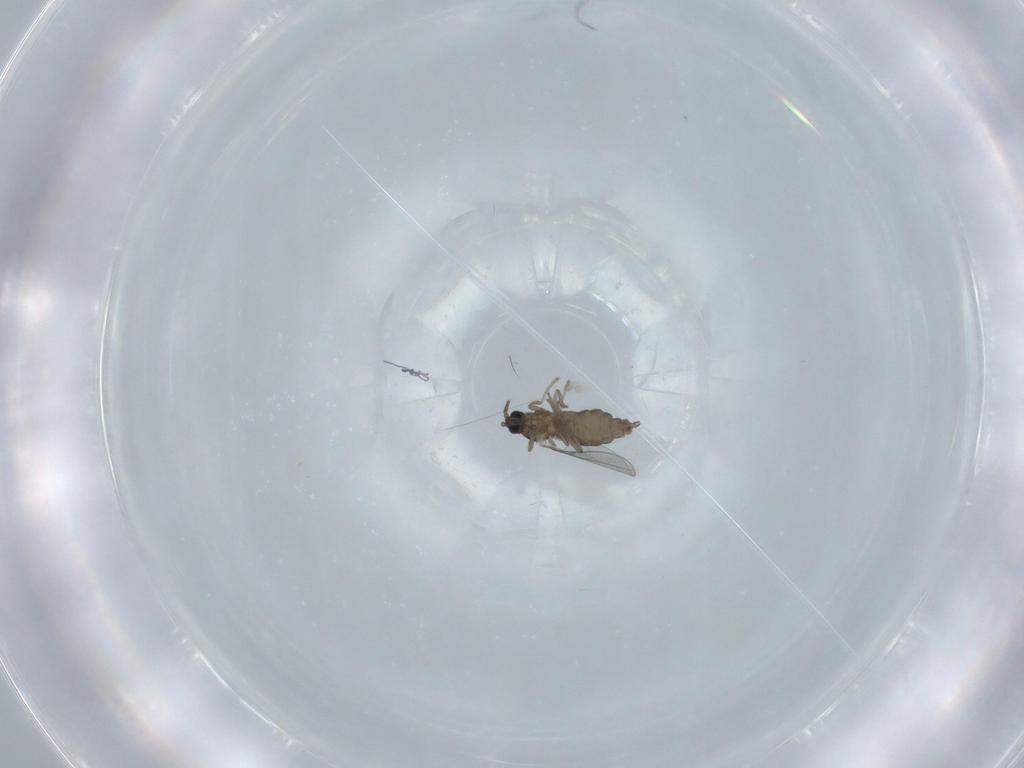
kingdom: Animalia
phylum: Arthropoda
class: Insecta
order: Diptera
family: Cecidomyiidae
